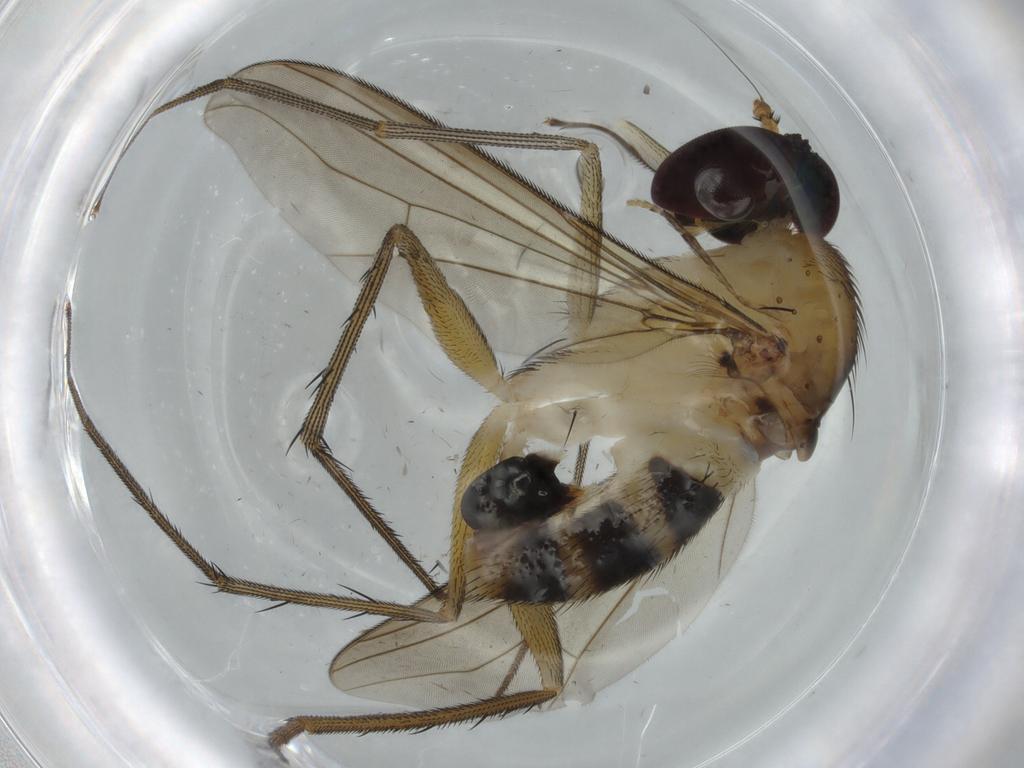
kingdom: Animalia
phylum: Arthropoda
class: Insecta
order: Diptera
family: Dolichopodidae
